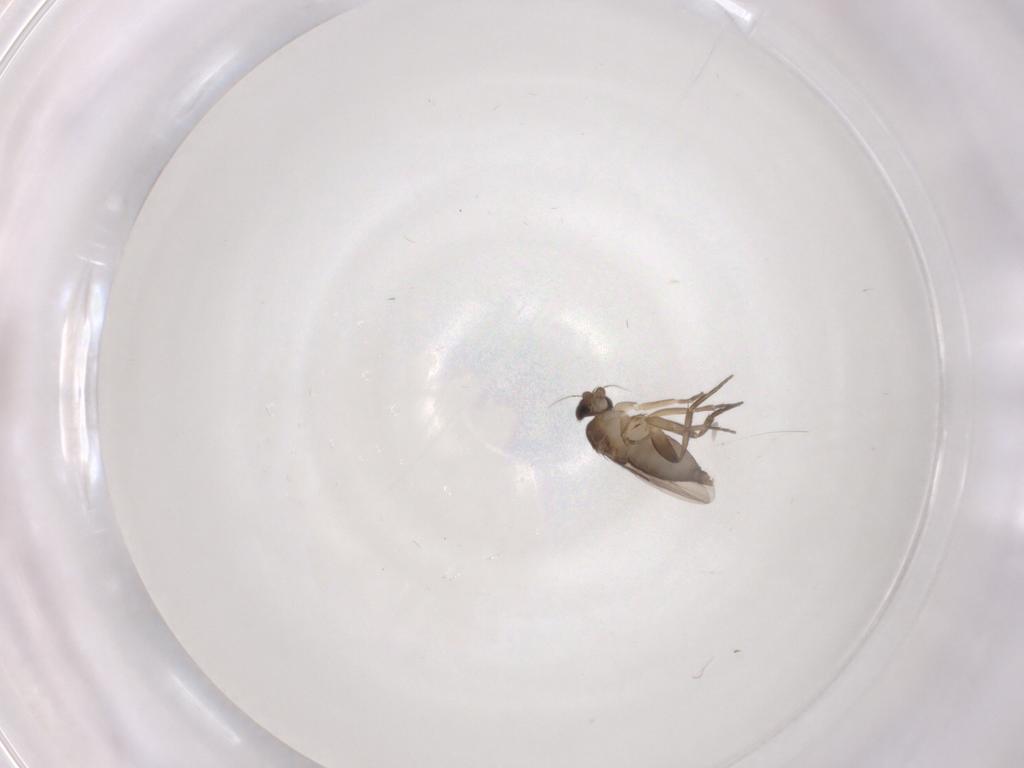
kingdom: Animalia
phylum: Arthropoda
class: Insecta
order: Diptera
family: Phoridae
